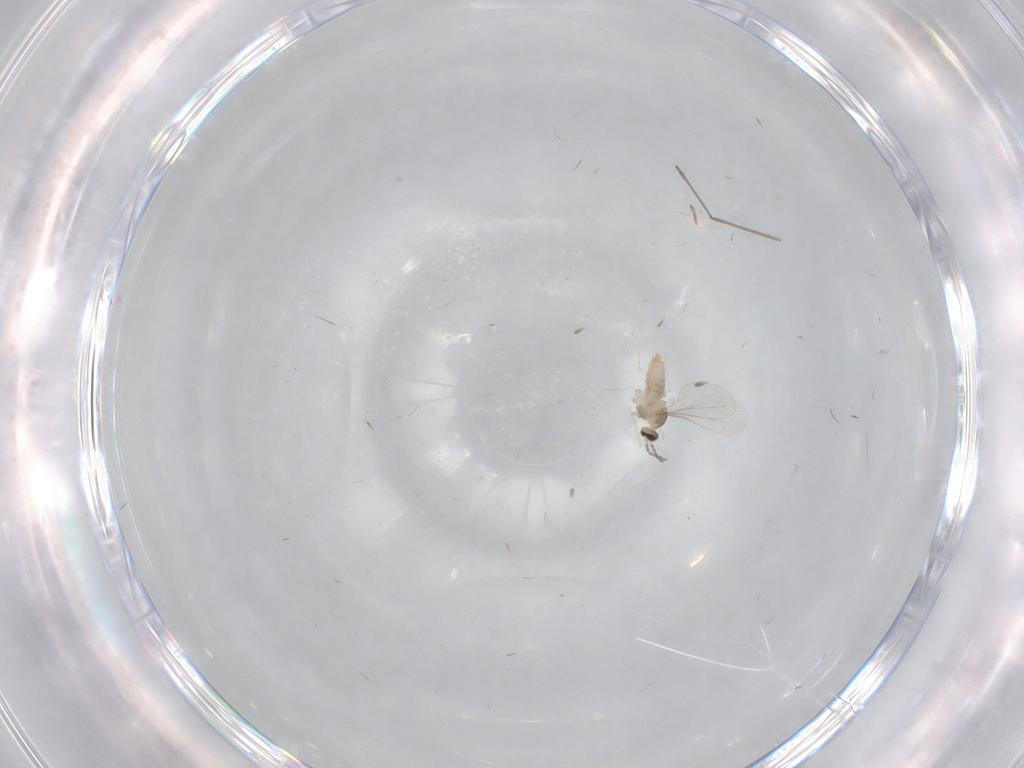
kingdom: Animalia
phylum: Arthropoda
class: Insecta
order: Diptera
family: Cecidomyiidae
